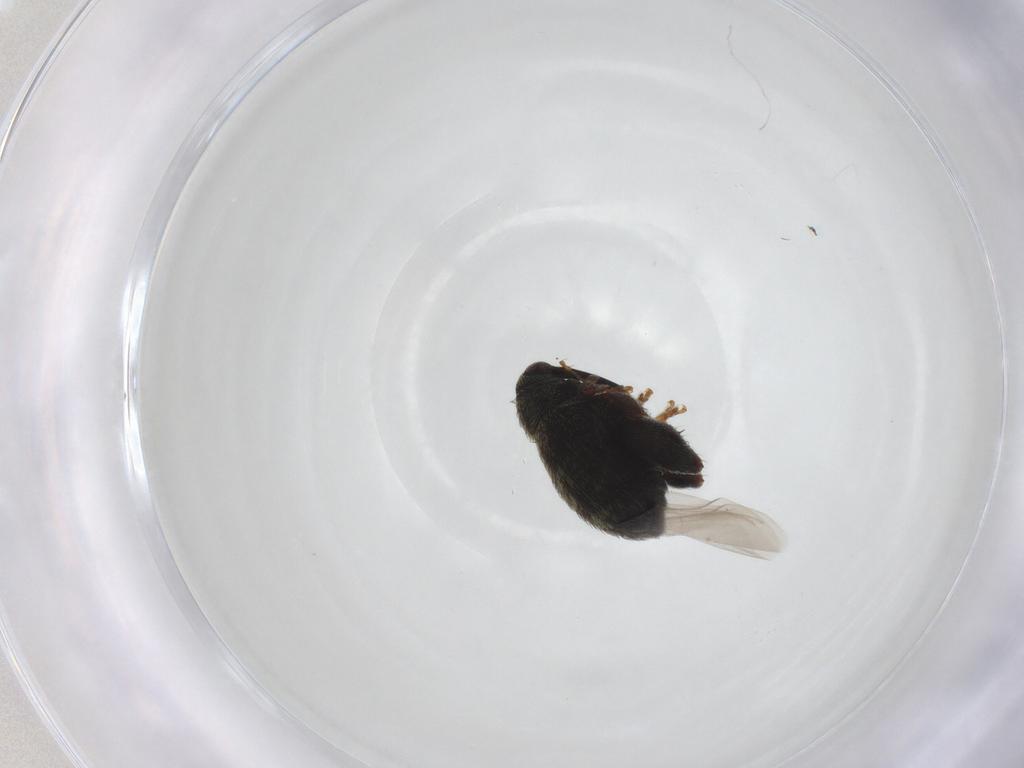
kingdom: Animalia
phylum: Arthropoda
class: Insecta
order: Coleoptera
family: Curculionidae
